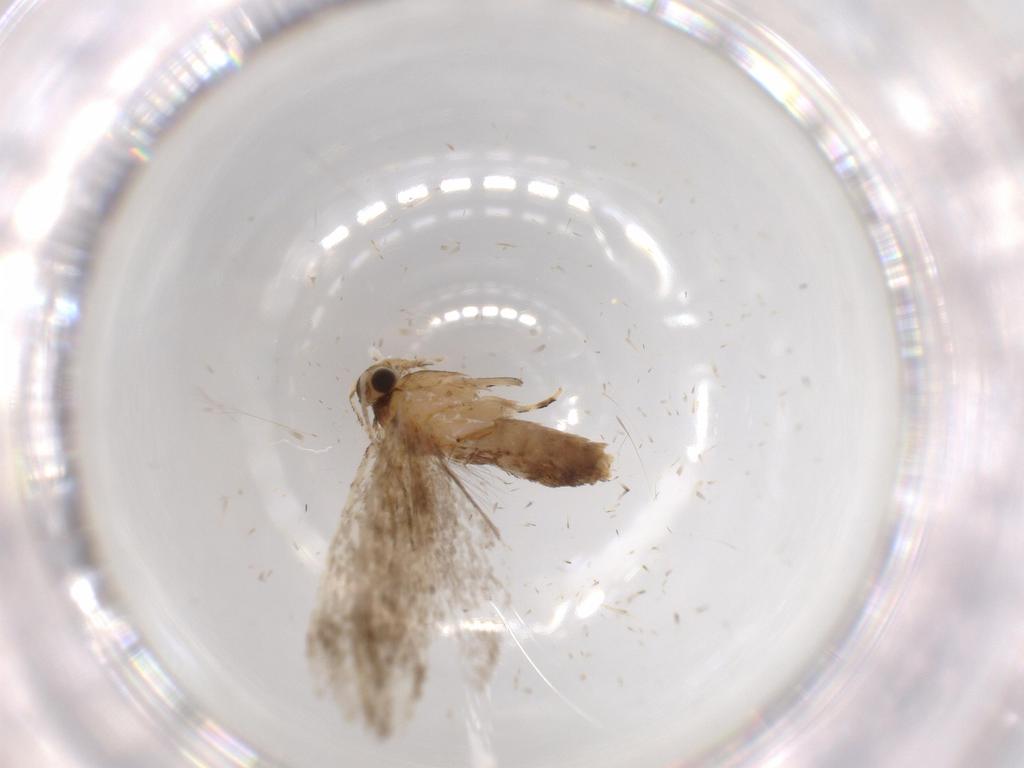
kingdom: Animalia
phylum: Arthropoda
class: Insecta
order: Lepidoptera
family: Tineidae
